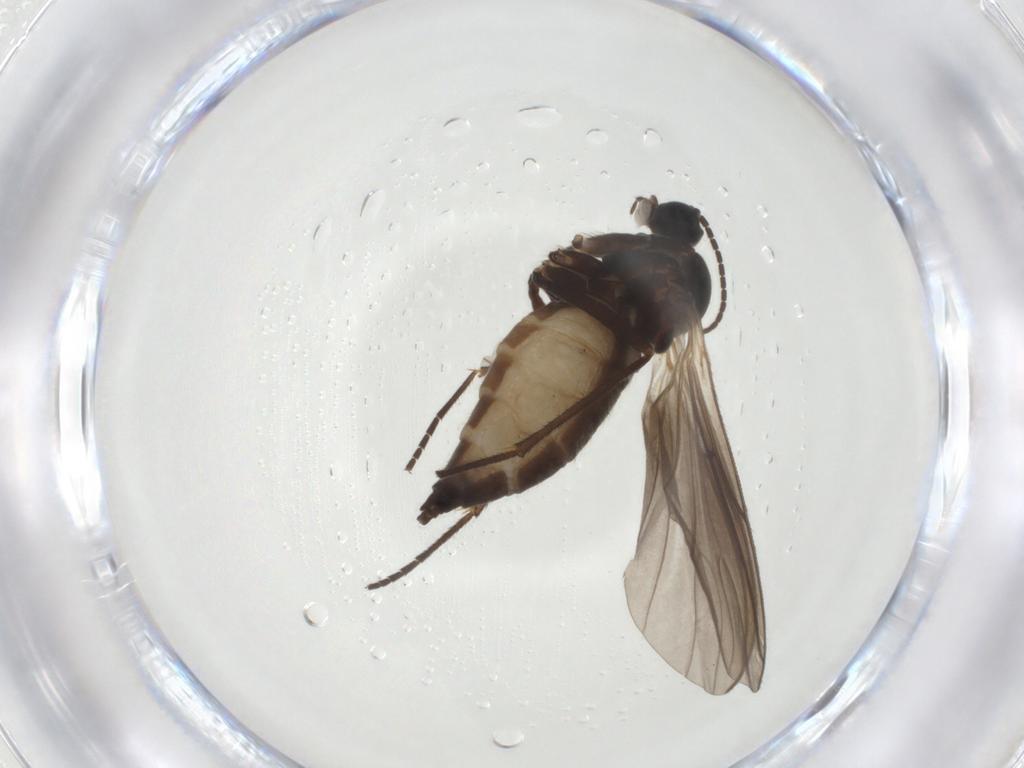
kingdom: Animalia
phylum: Arthropoda
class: Insecta
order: Diptera
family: Sciaridae
